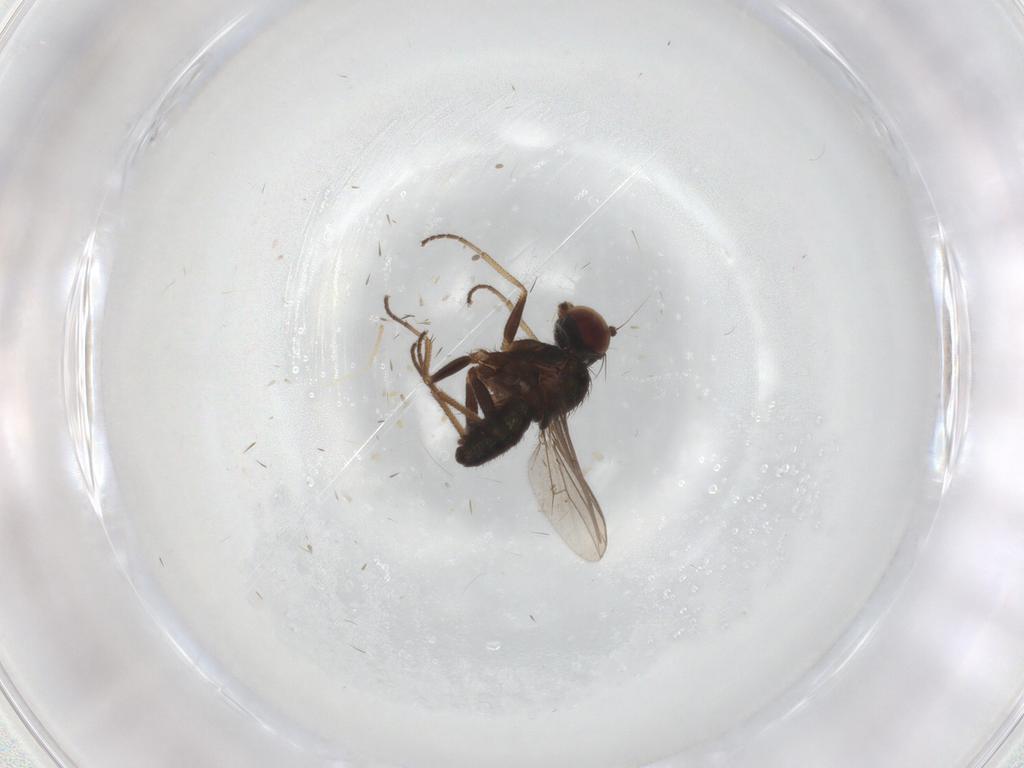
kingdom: Animalia
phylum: Arthropoda
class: Insecta
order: Diptera
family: Dolichopodidae
